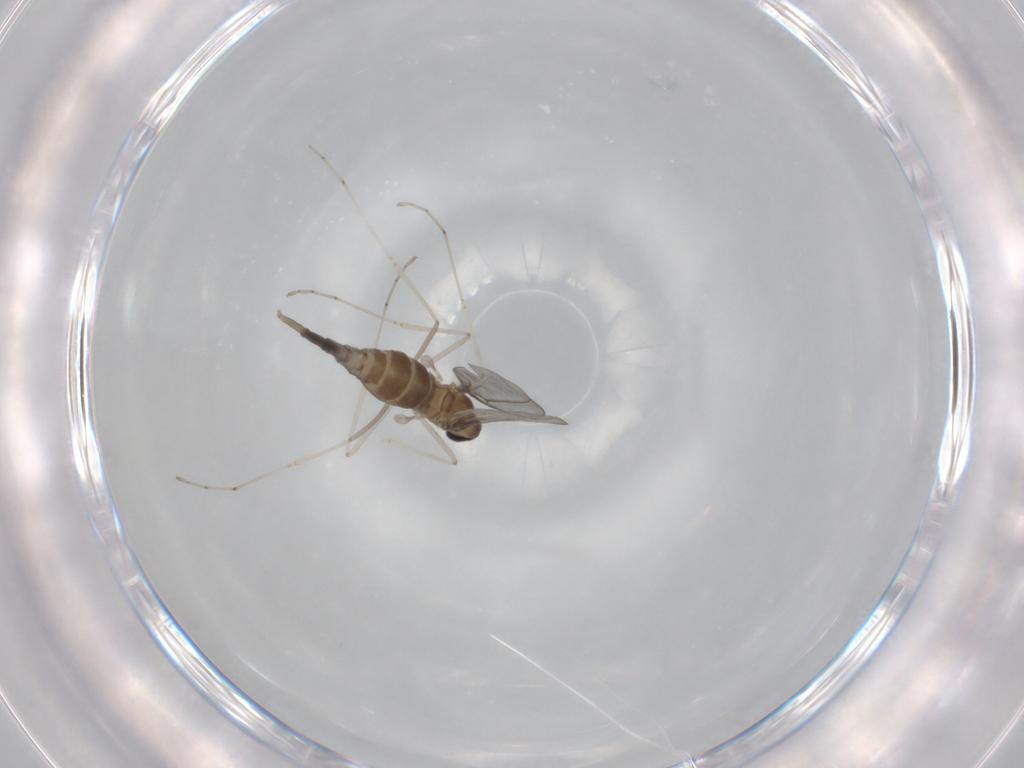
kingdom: Animalia
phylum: Arthropoda
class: Insecta
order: Diptera
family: Cecidomyiidae
